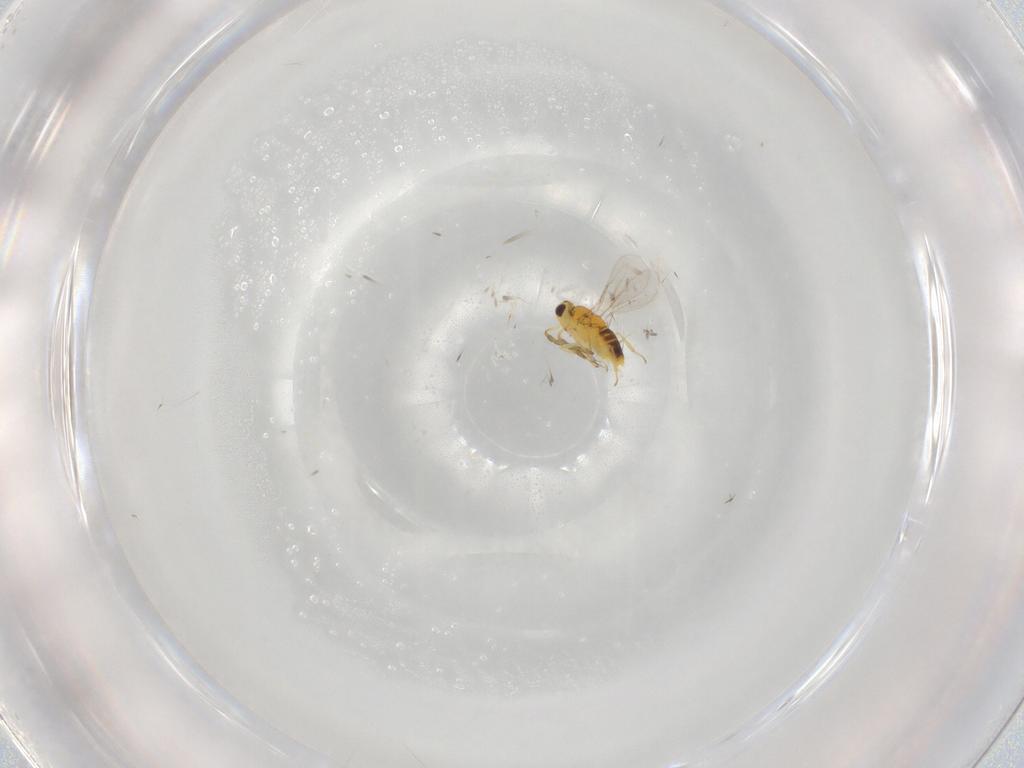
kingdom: Animalia
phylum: Arthropoda
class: Insecta
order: Hymenoptera
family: Aphelinidae
